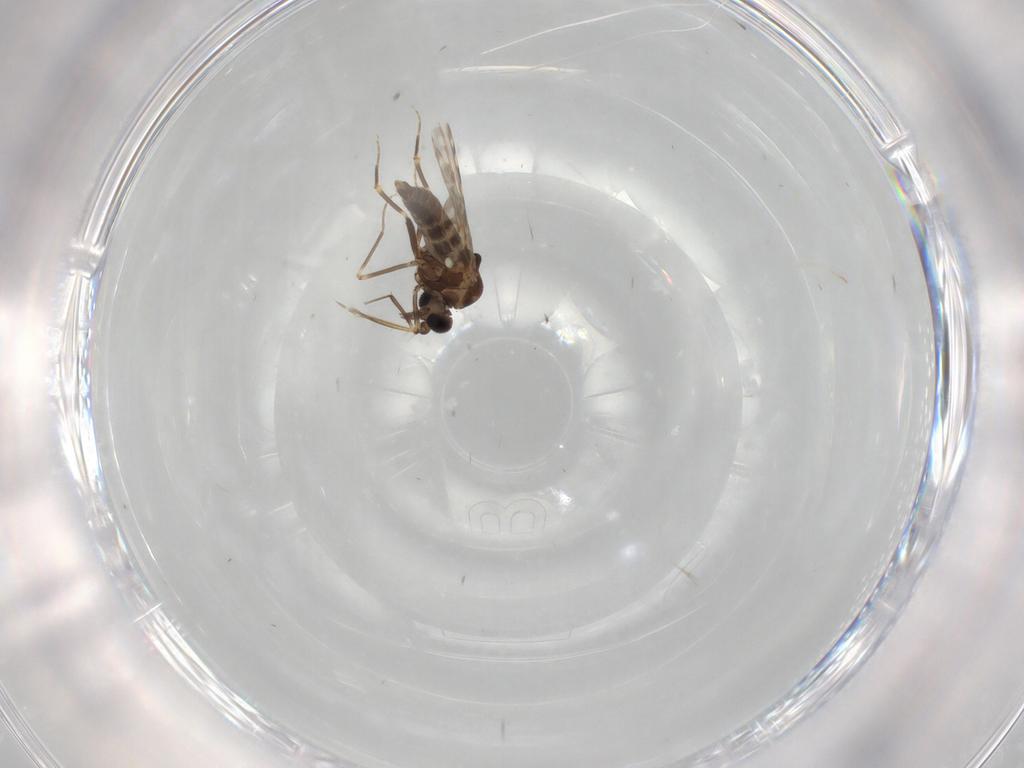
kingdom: Animalia
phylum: Arthropoda
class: Insecta
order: Diptera
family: Ceratopogonidae
